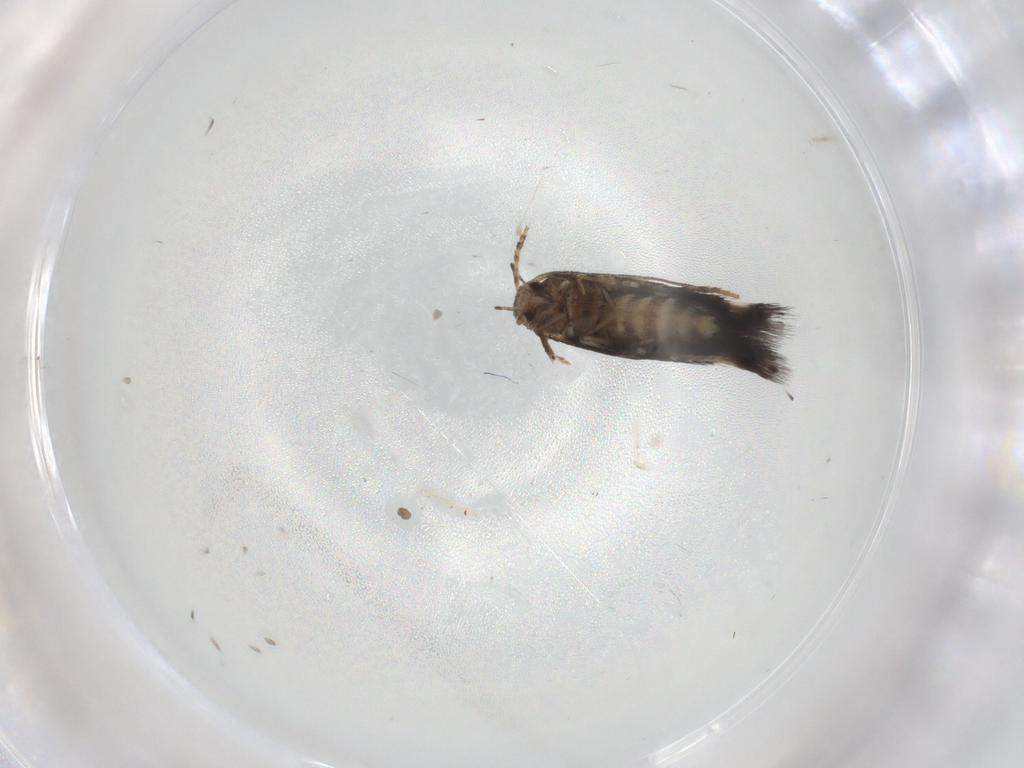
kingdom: Animalia
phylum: Arthropoda
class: Insecta
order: Lepidoptera
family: Elachistidae
